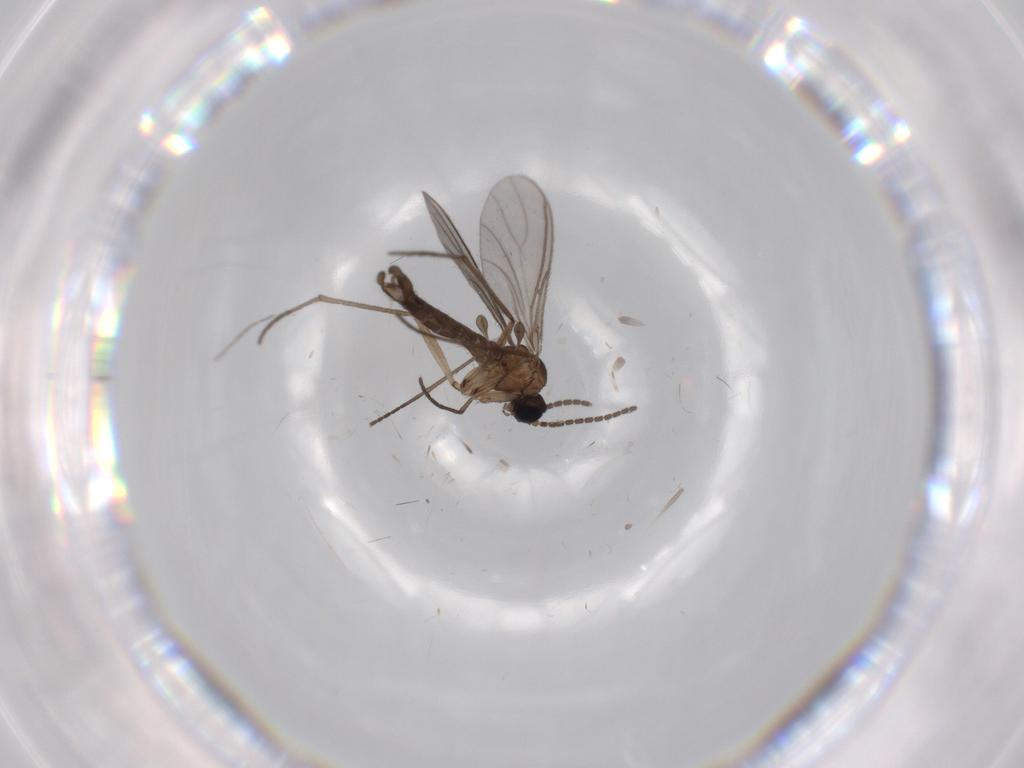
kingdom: Animalia
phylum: Arthropoda
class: Insecta
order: Diptera
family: Sciaridae
